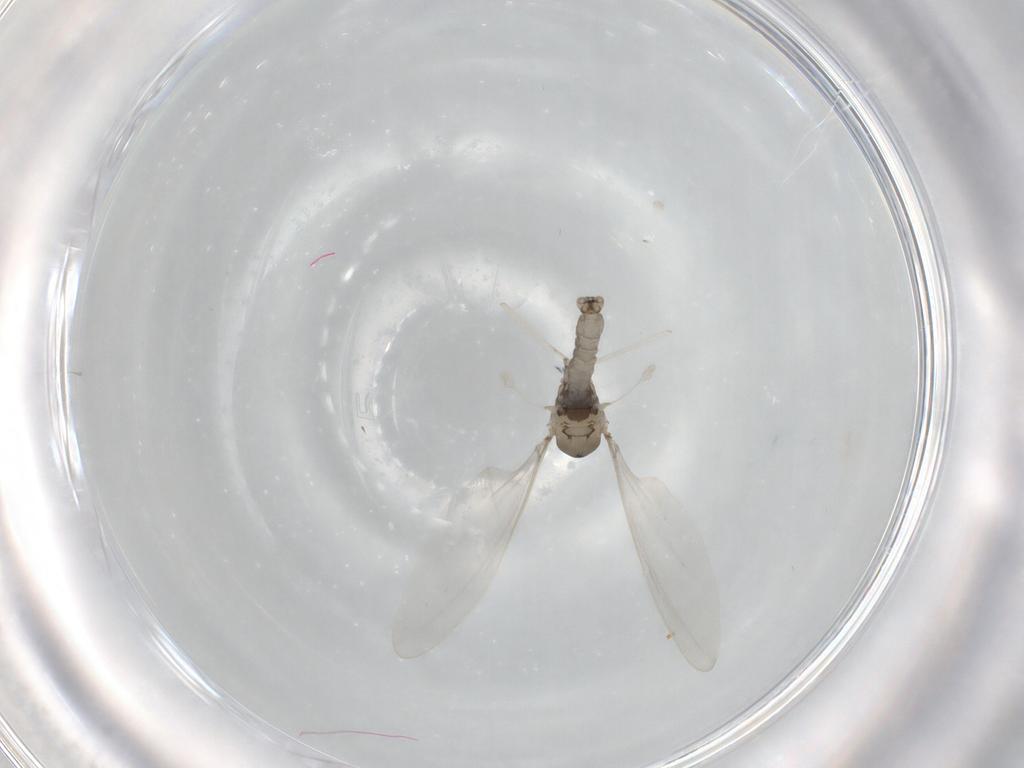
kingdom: Animalia
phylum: Arthropoda
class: Insecta
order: Diptera
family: Cecidomyiidae
